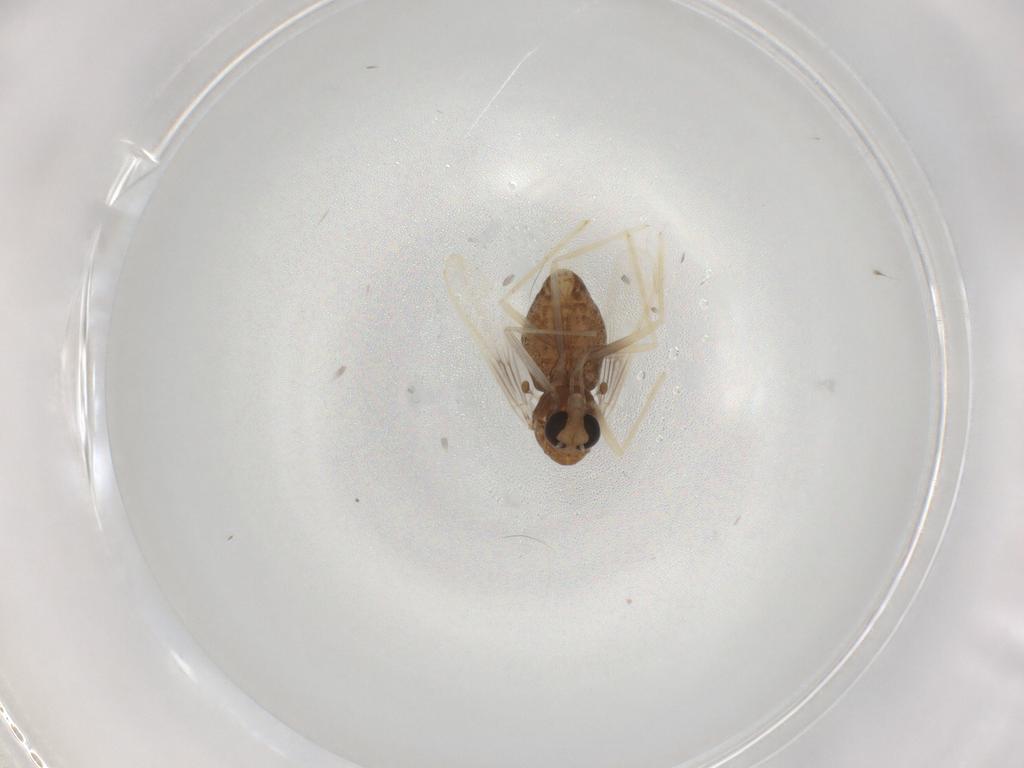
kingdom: Animalia
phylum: Arthropoda
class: Insecta
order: Diptera
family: Chironomidae
